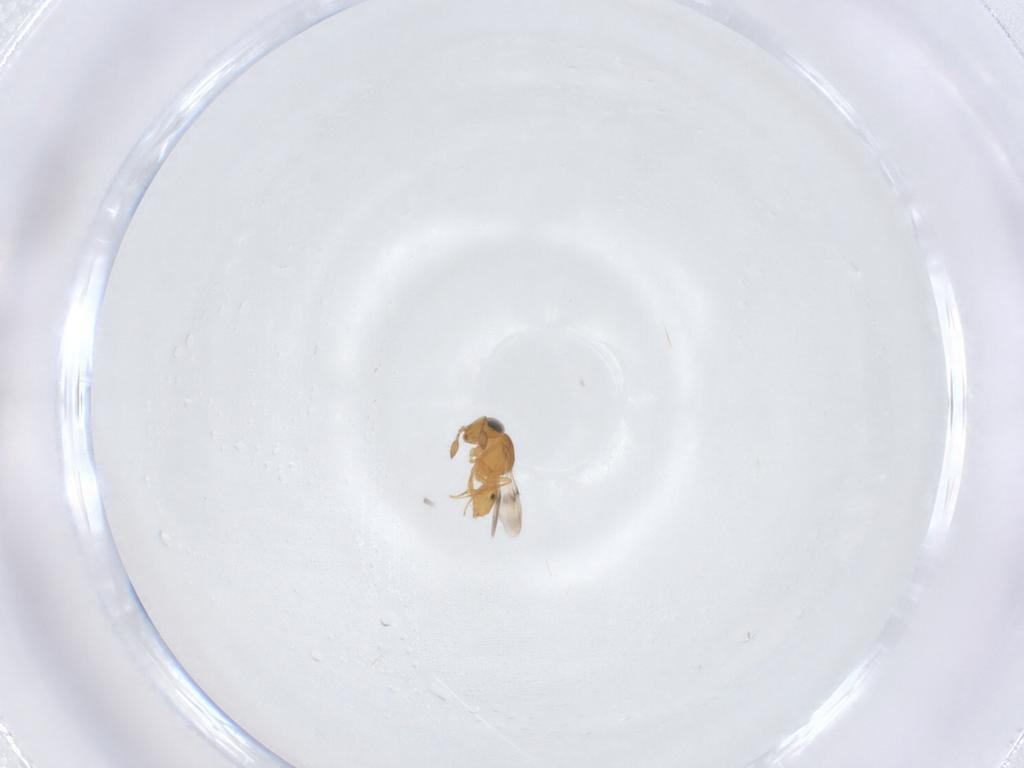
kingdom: Animalia
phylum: Arthropoda
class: Insecta
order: Hymenoptera
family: Scelionidae
